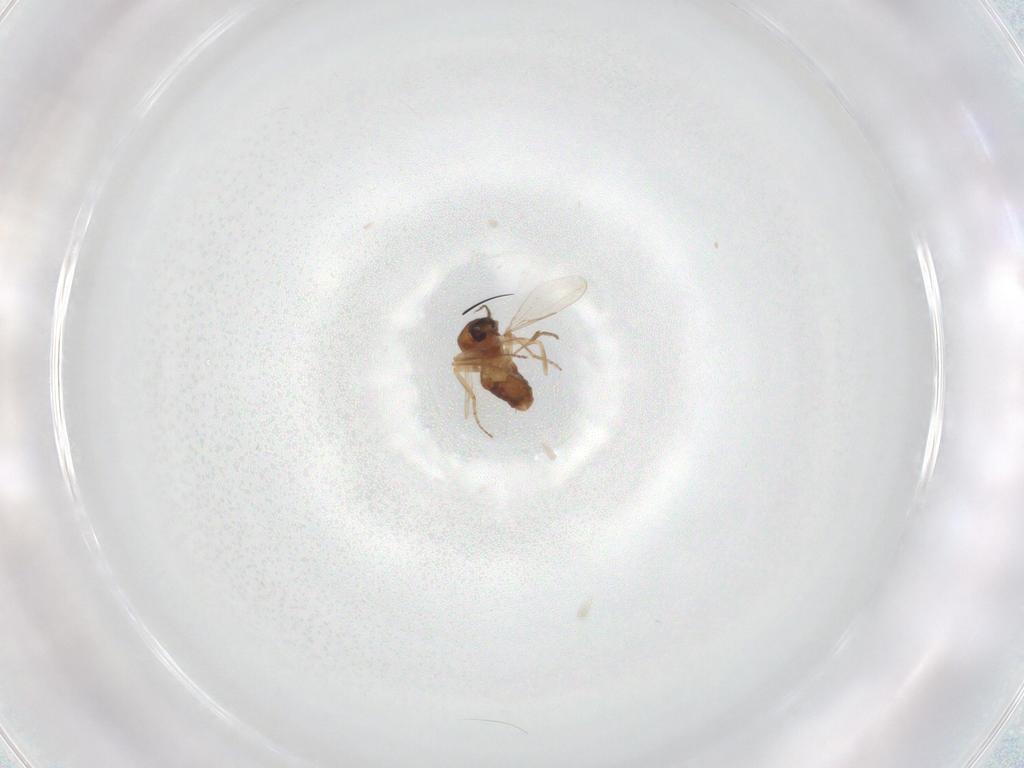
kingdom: Animalia
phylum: Arthropoda
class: Insecta
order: Diptera
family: Ceratopogonidae
